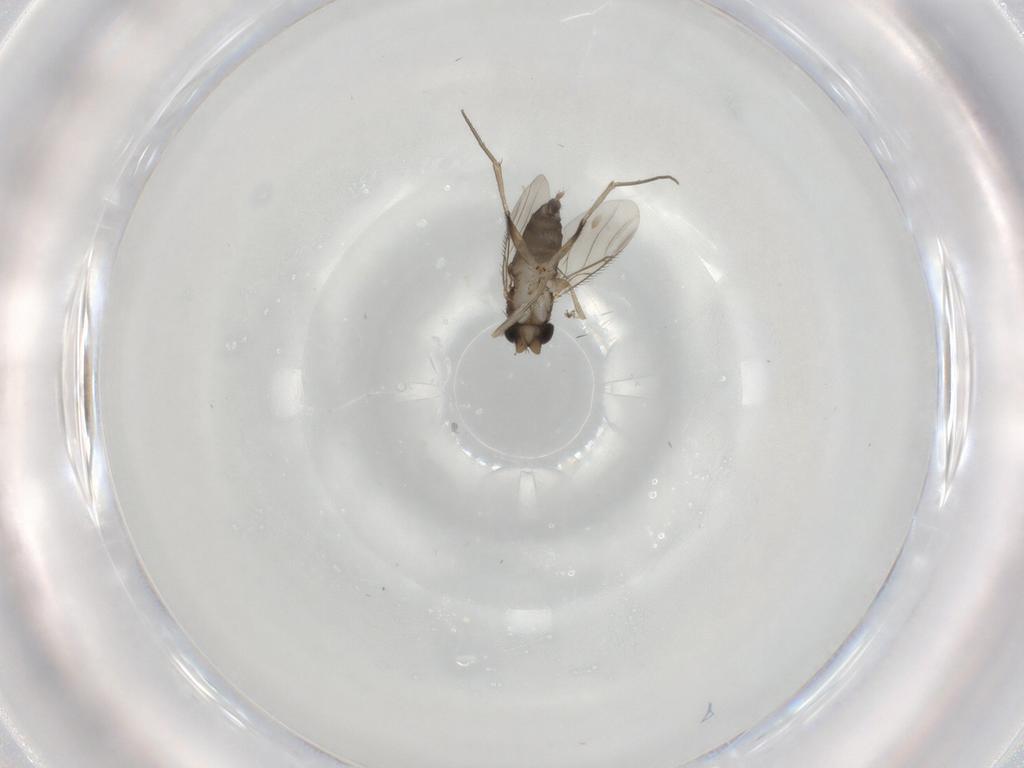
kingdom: Animalia
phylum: Arthropoda
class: Insecta
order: Diptera
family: Phoridae
